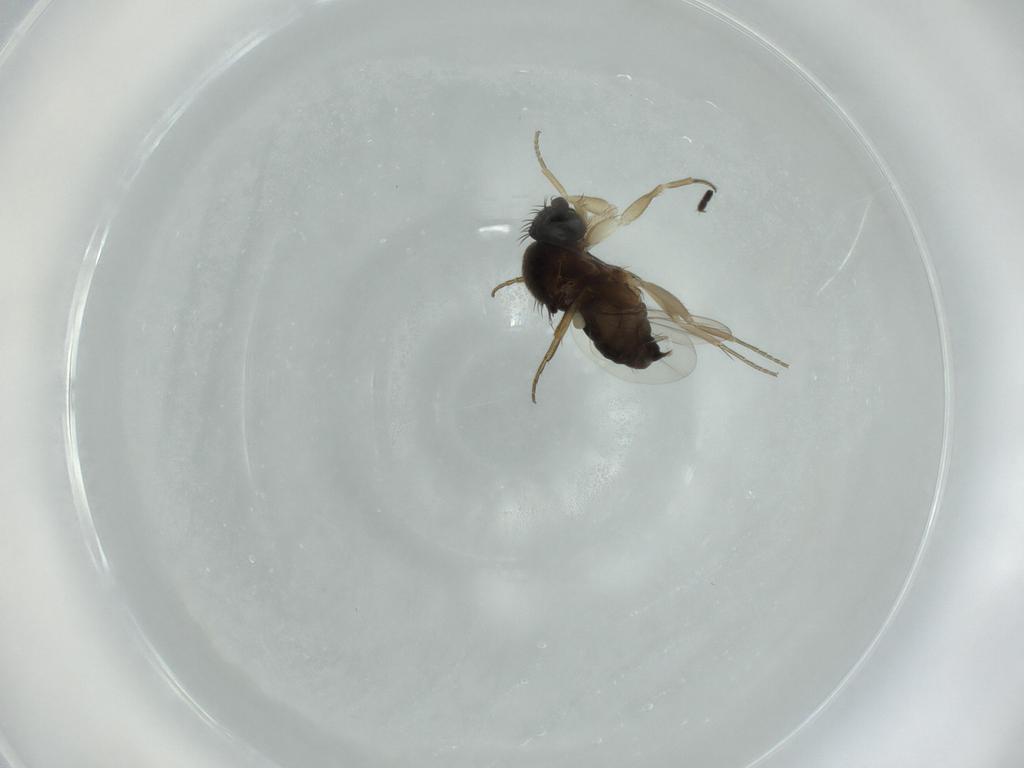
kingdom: Animalia
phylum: Arthropoda
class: Insecta
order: Diptera
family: Sciaridae
